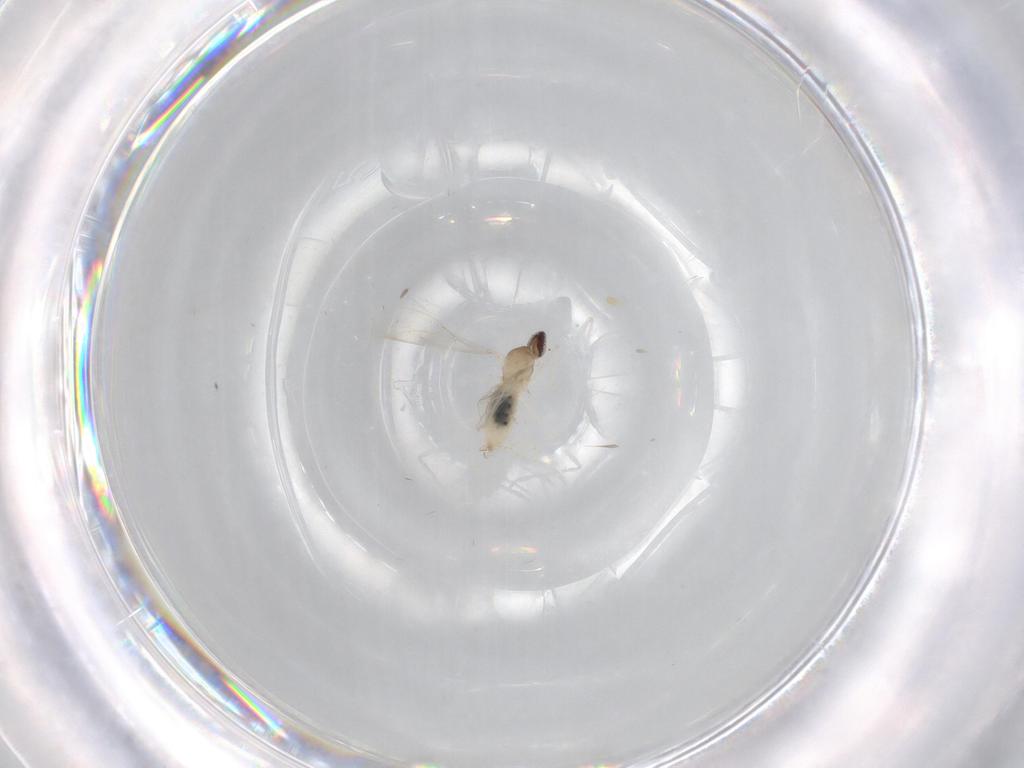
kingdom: Animalia
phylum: Arthropoda
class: Insecta
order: Diptera
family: Cecidomyiidae
